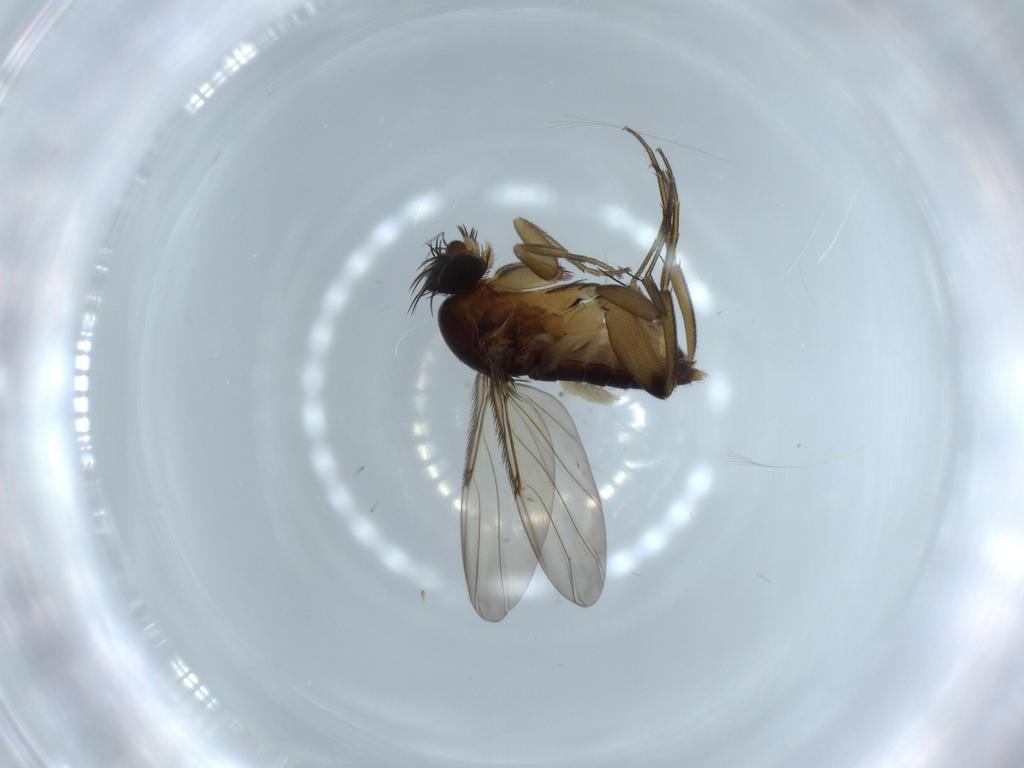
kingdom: Animalia
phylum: Arthropoda
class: Insecta
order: Diptera
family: Phoridae
